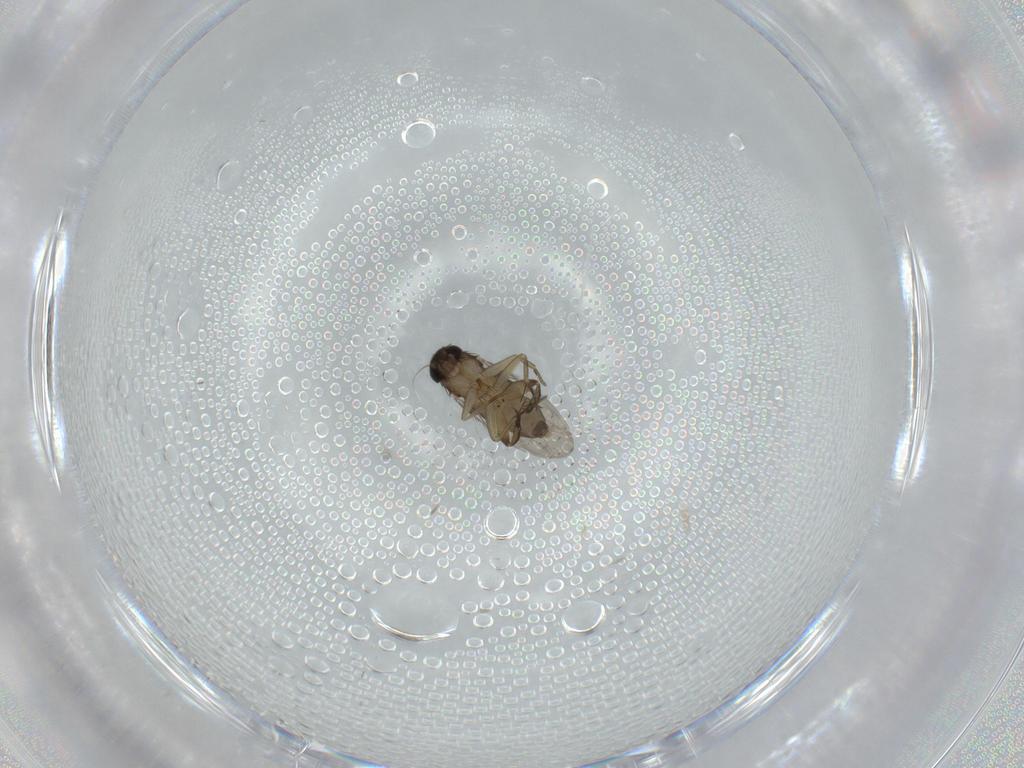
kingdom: Animalia
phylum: Arthropoda
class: Insecta
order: Diptera
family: Phoridae
